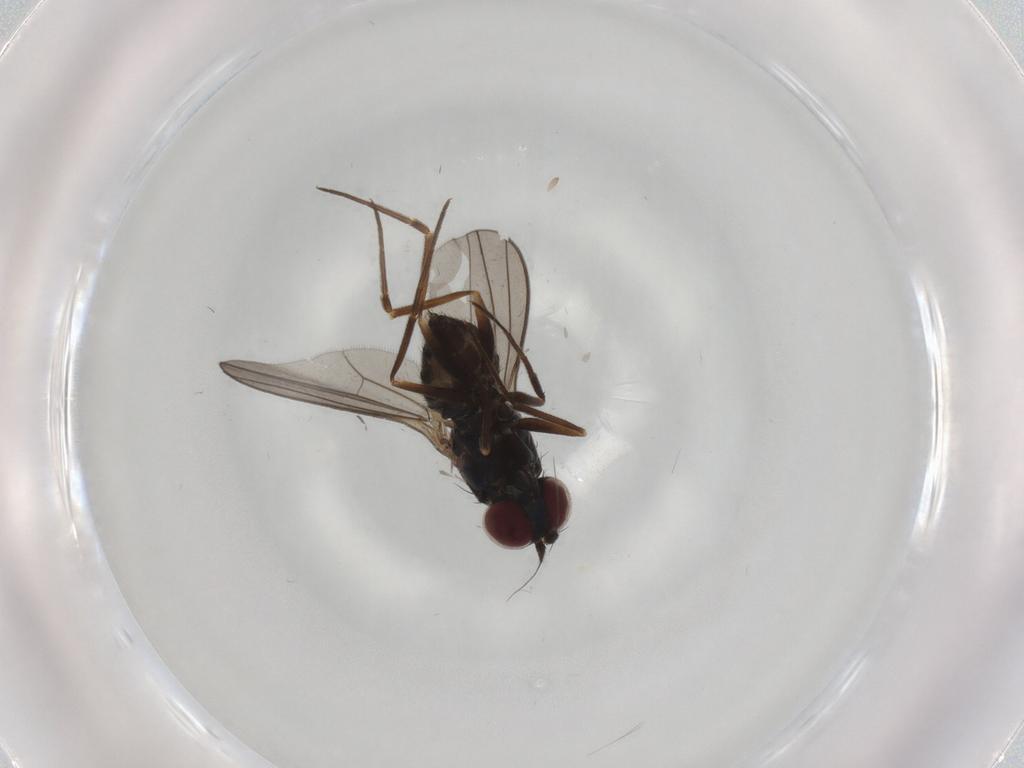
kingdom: Animalia
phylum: Arthropoda
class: Insecta
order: Diptera
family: Dolichopodidae
